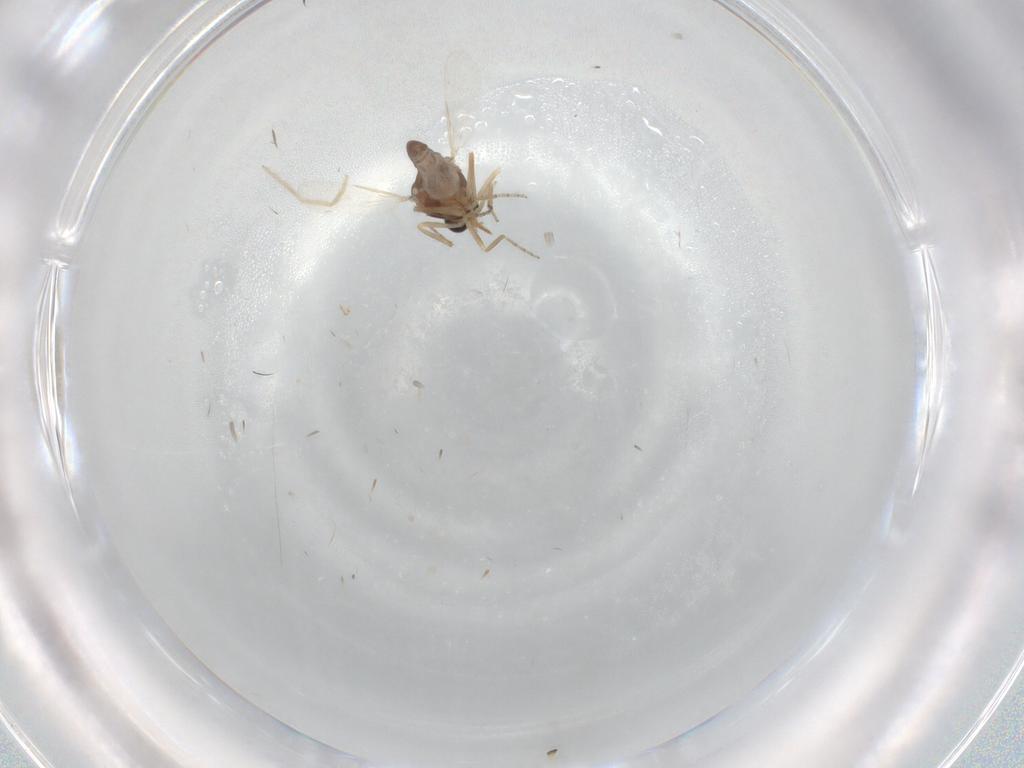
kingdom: Animalia
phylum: Arthropoda
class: Insecta
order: Diptera
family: Ceratopogonidae
